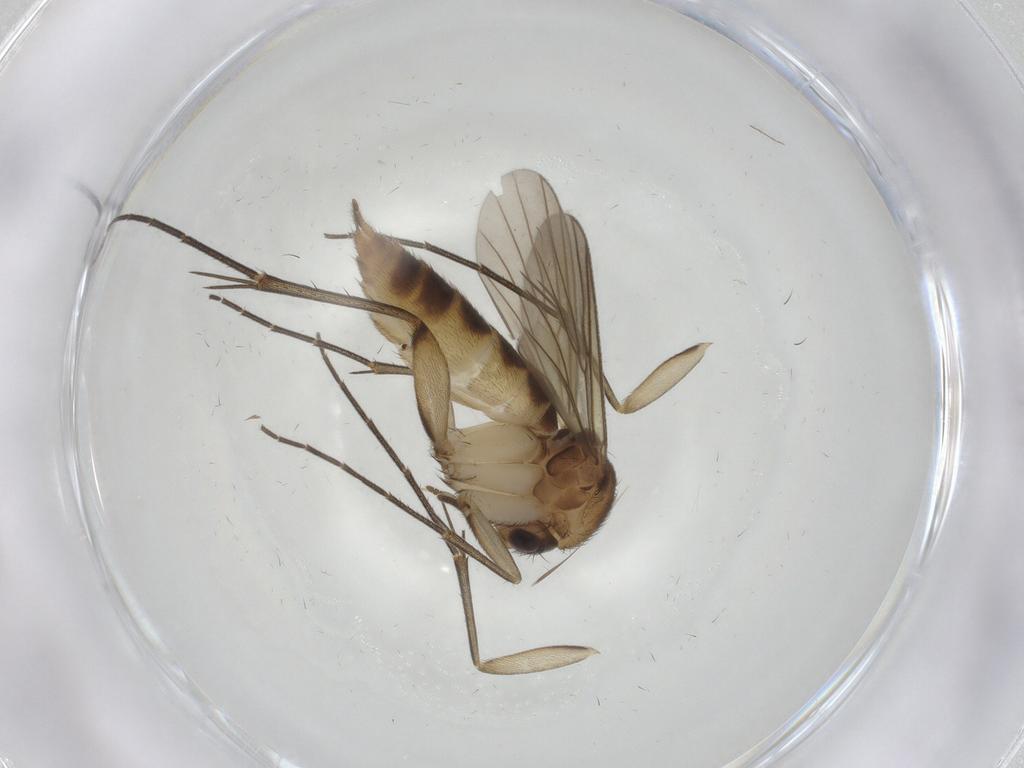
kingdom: Animalia
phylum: Arthropoda
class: Insecta
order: Diptera
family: Mycetophilidae
